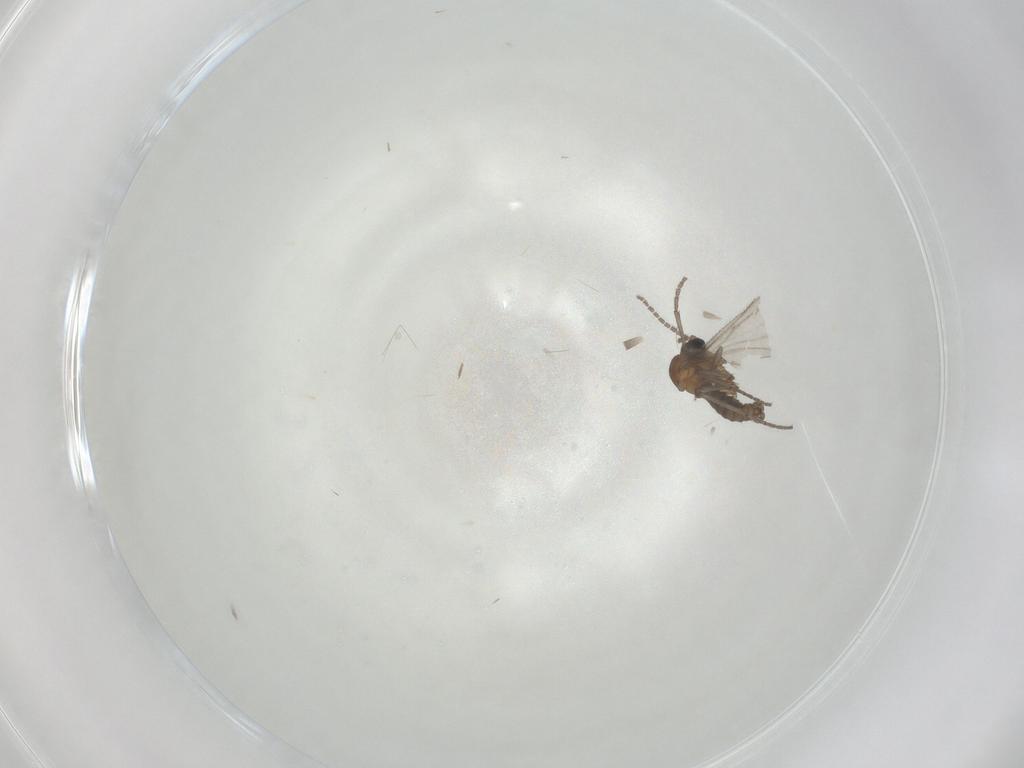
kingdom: Animalia
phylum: Arthropoda
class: Insecta
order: Diptera
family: Sciaridae
